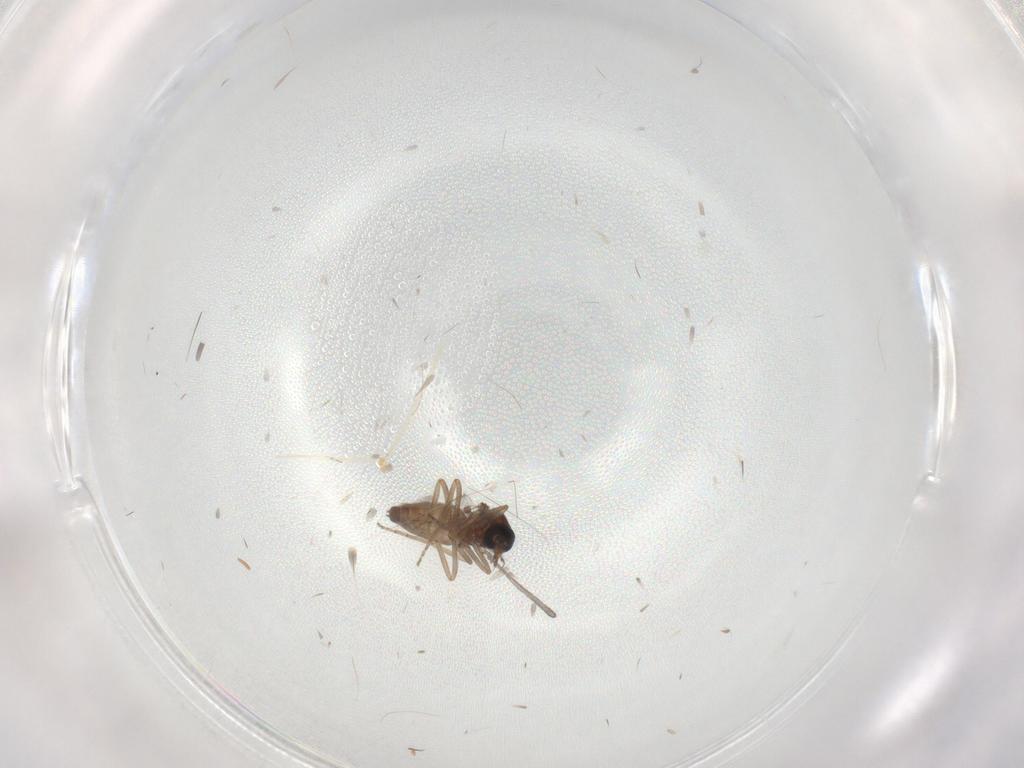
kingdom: Animalia
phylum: Arthropoda
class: Insecta
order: Diptera
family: Ceratopogonidae
